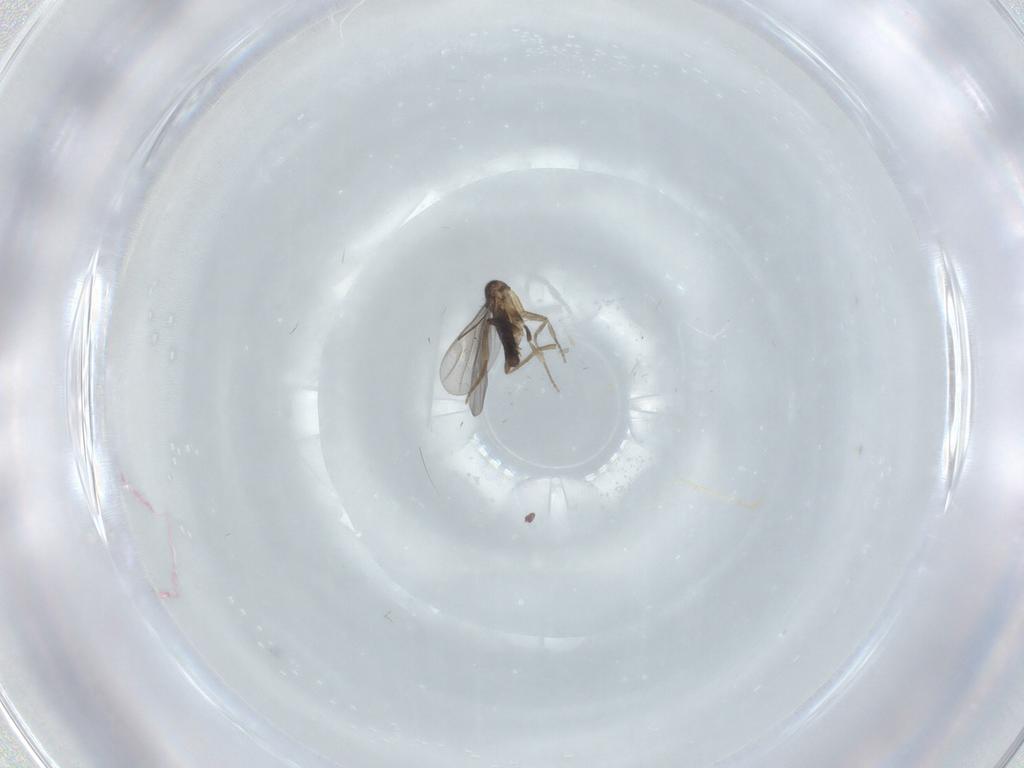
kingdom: Animalia
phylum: Arthropoda
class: Insecta
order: Diptera
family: Phoridae
